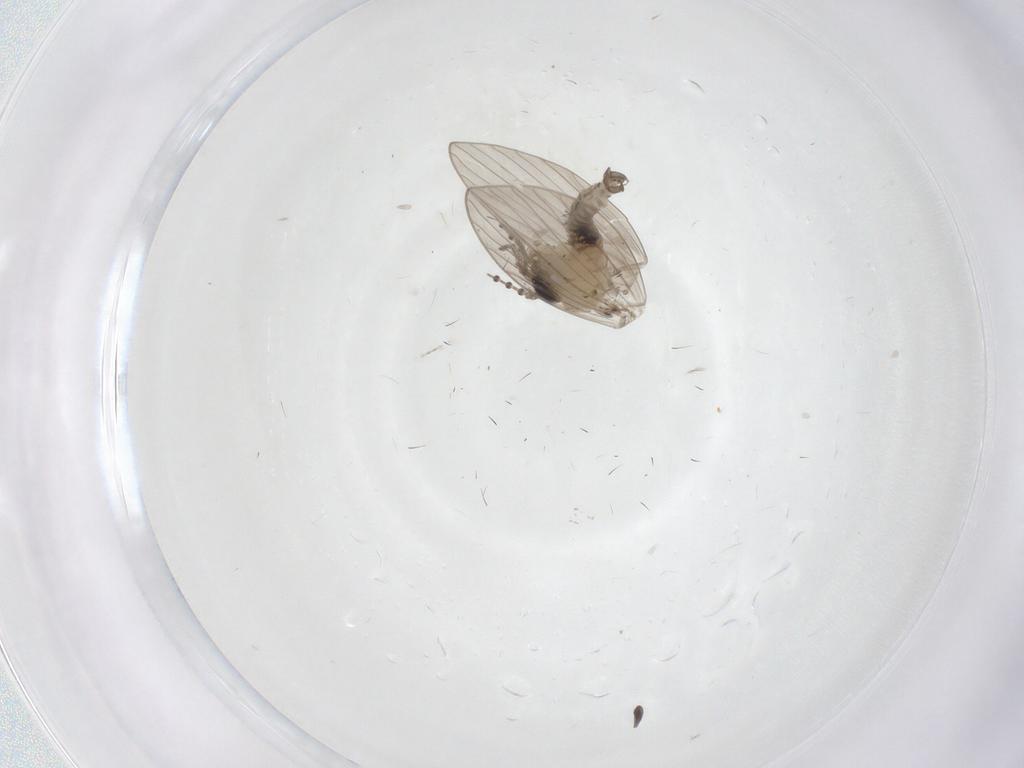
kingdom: Animalia
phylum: Arthropoda
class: Insecta
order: Diptera
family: Psychodidae
